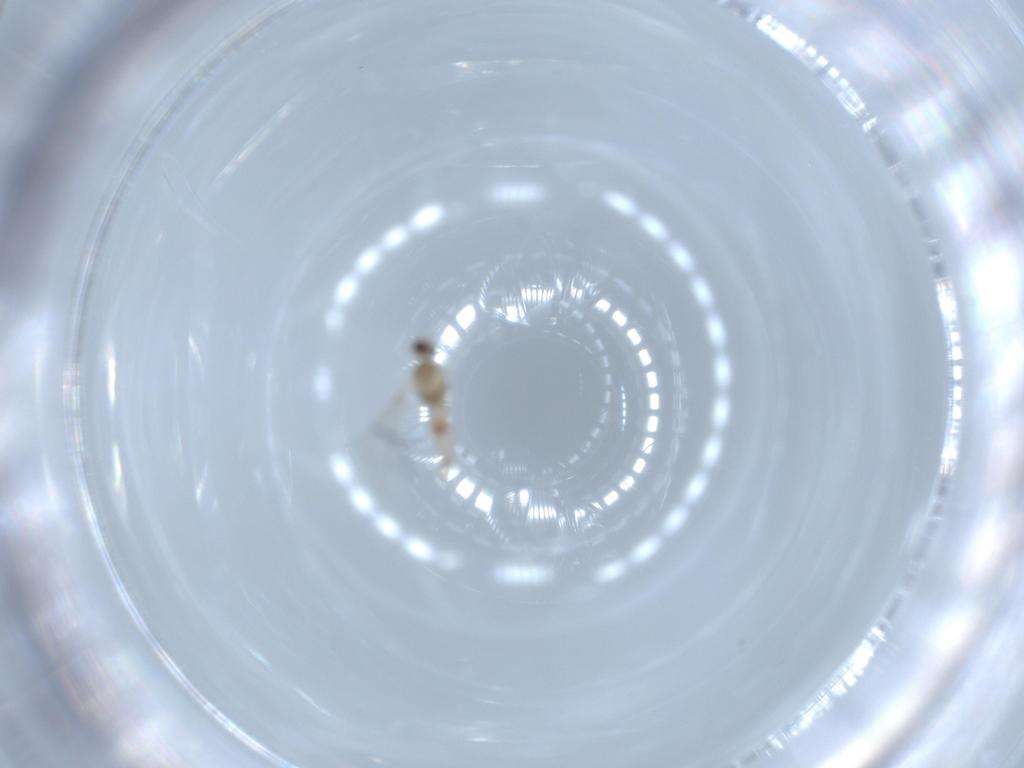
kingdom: Animalia
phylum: Arthropoda
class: Insecta
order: Diptera
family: Cecidomyiidae
